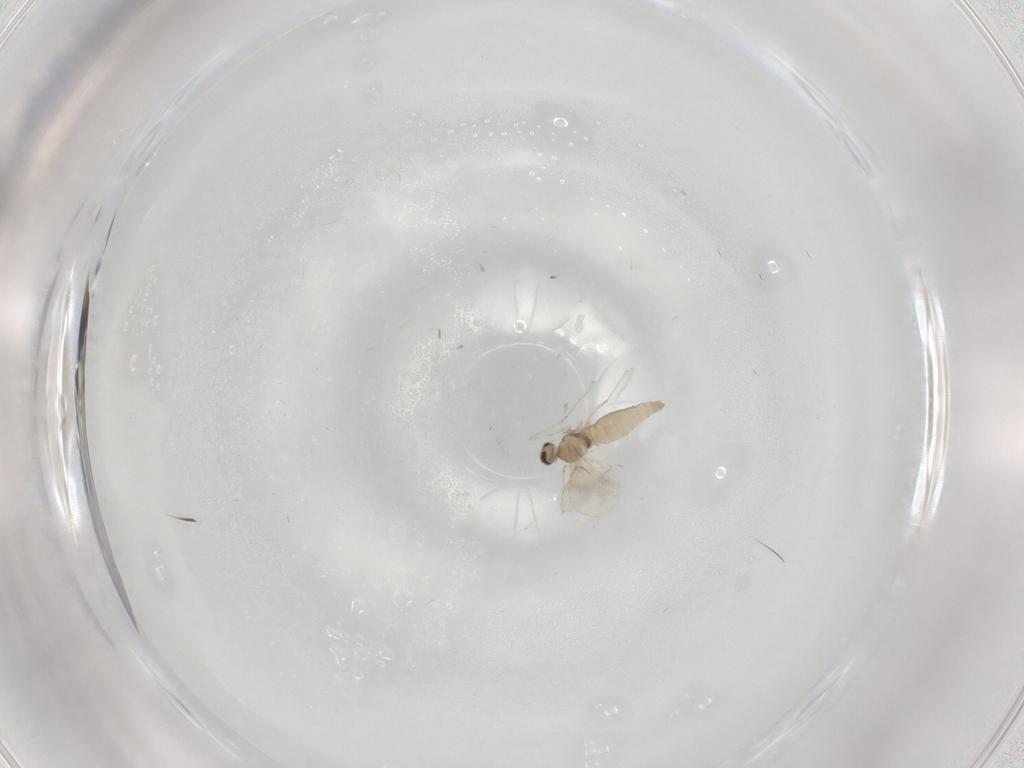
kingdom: Animalia
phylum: Arthropoda
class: Insecta
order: Diptera
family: Cecidomyiidae
